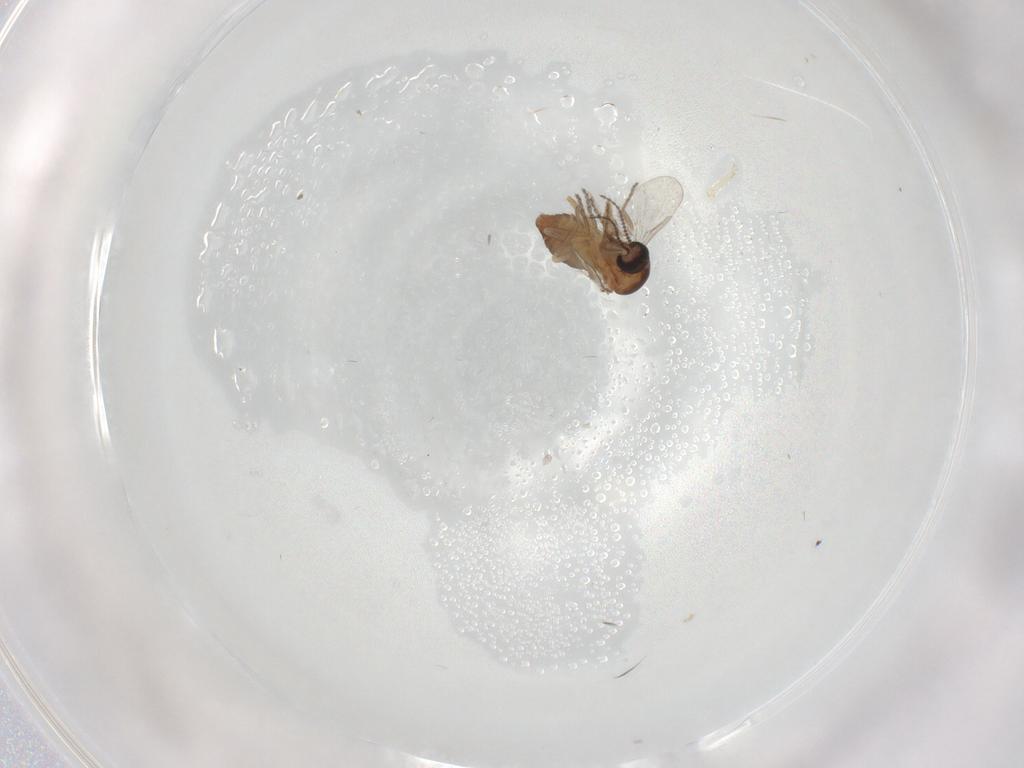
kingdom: Animalia
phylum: Arthropoda
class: Insecta
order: Diptera
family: Ceratopogonidae
